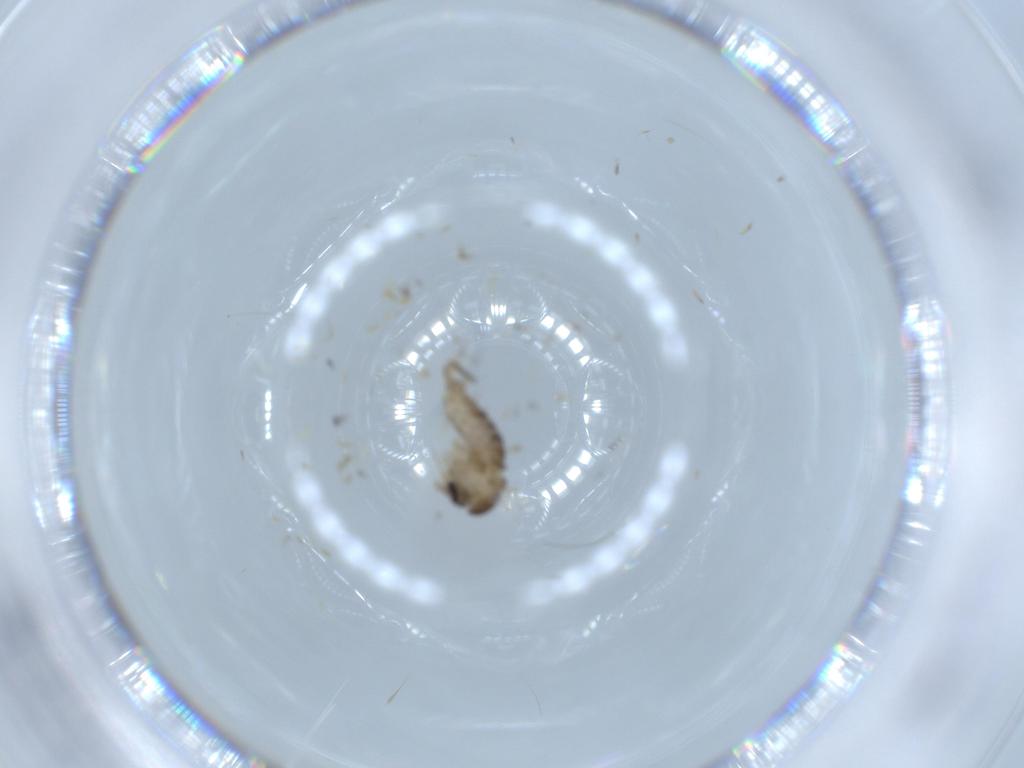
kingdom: Animalia
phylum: Arthropoda
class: Insecta
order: Diptera
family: Psychodidae
